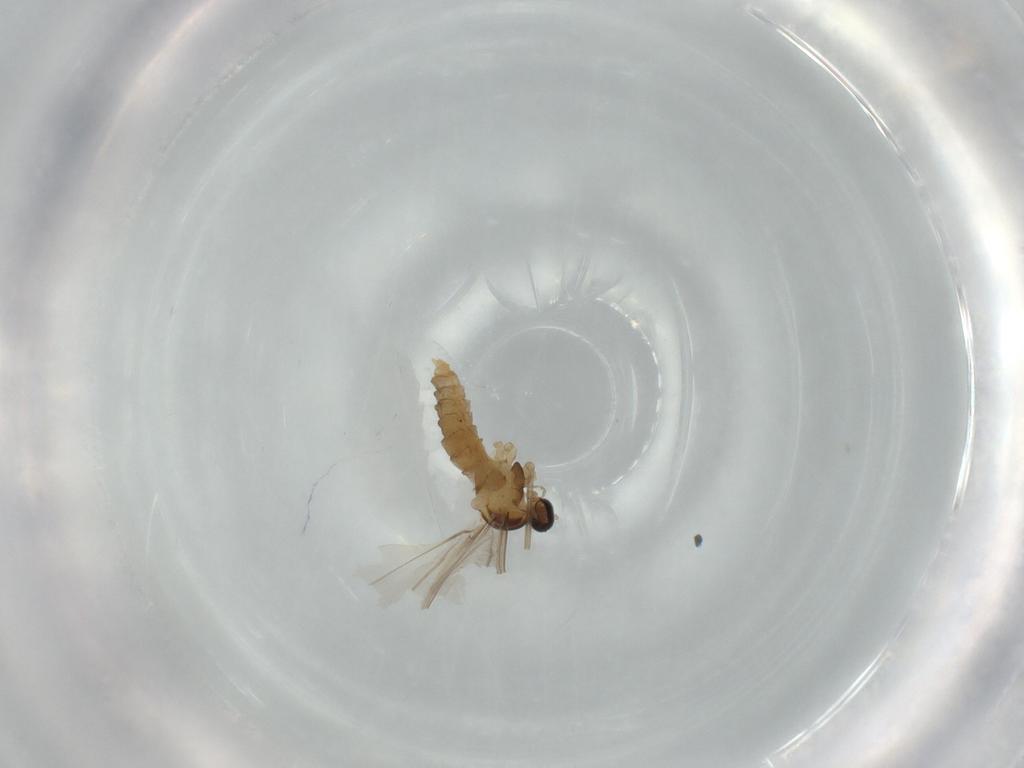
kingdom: Animalia
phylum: Arthropoda
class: Insecta
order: Diptera
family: Cecidomyiidae
